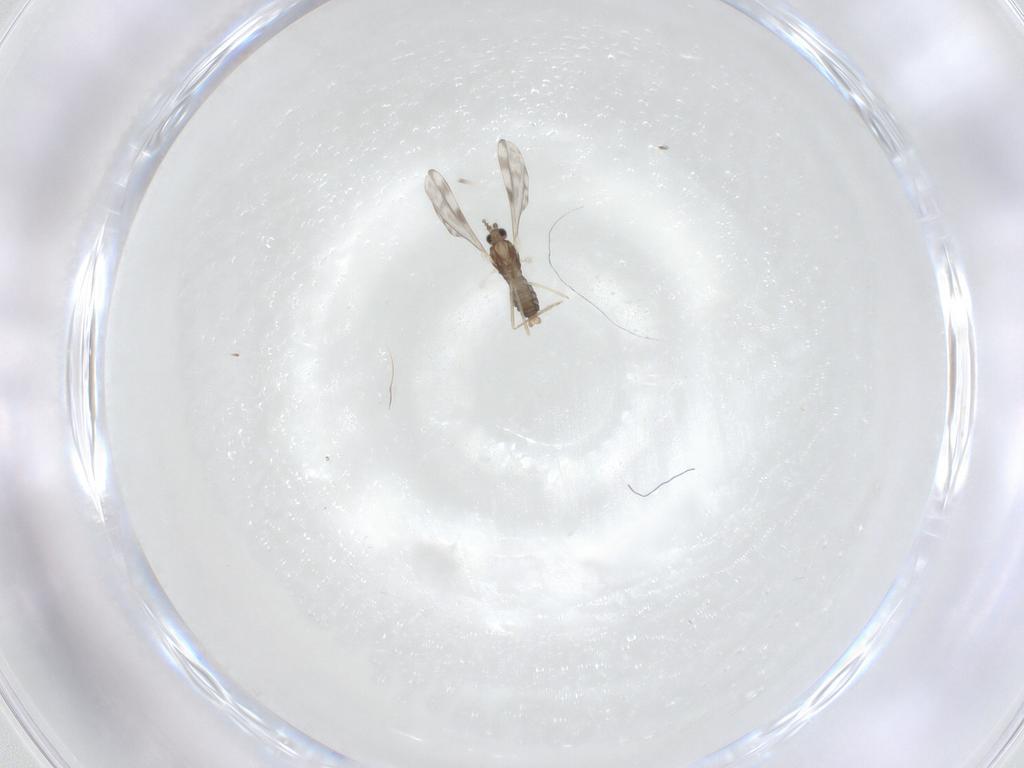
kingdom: Animalia
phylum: Arthropoda
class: Insecta
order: Diptera
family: Cecidomyiidae
